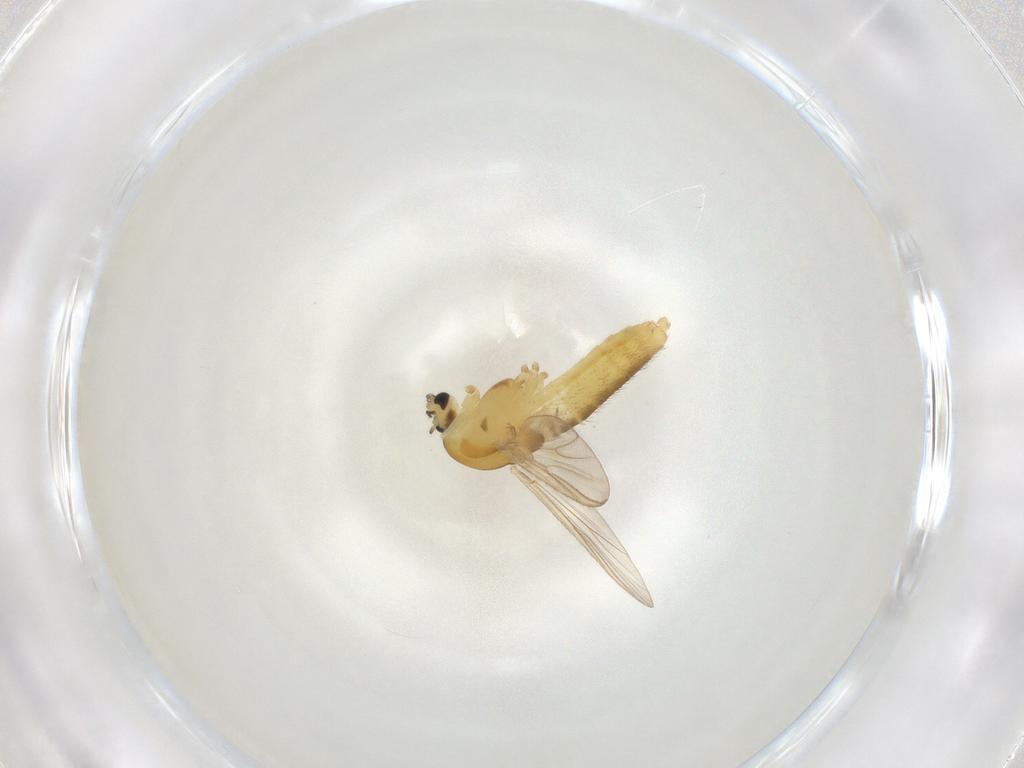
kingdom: Animalia
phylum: Arthropoda
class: Insecta
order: Diptera
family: Chironomidae
